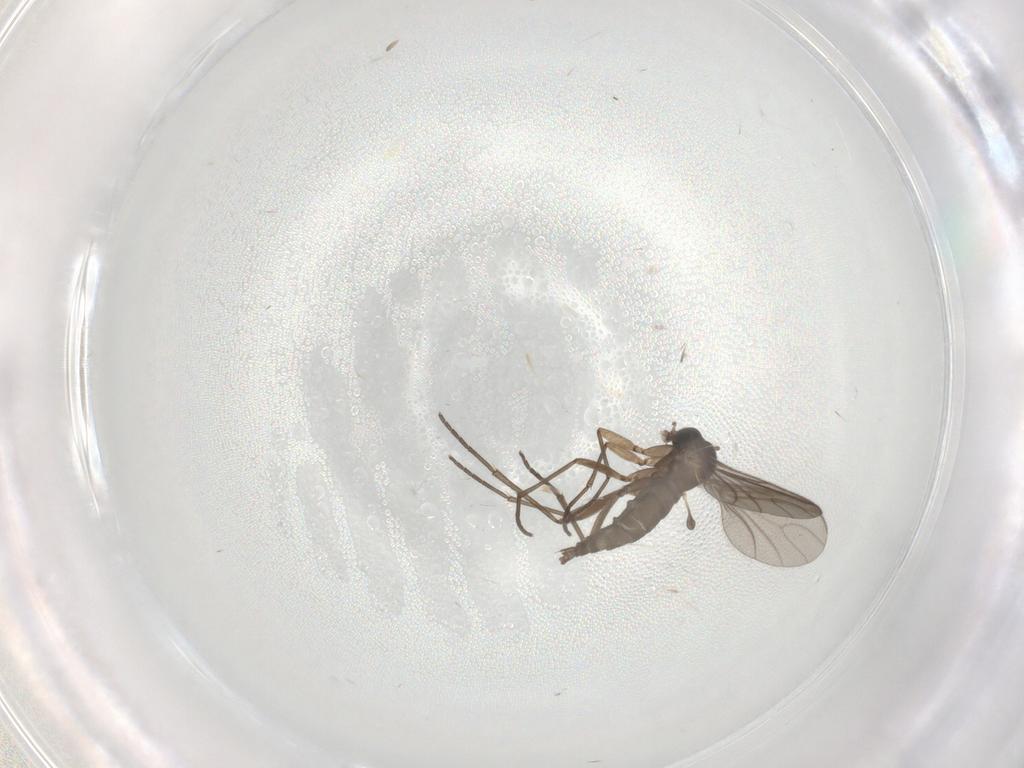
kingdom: Animalia
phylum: Arthropoda
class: Insecta
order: Diptera
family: Sciaridae
